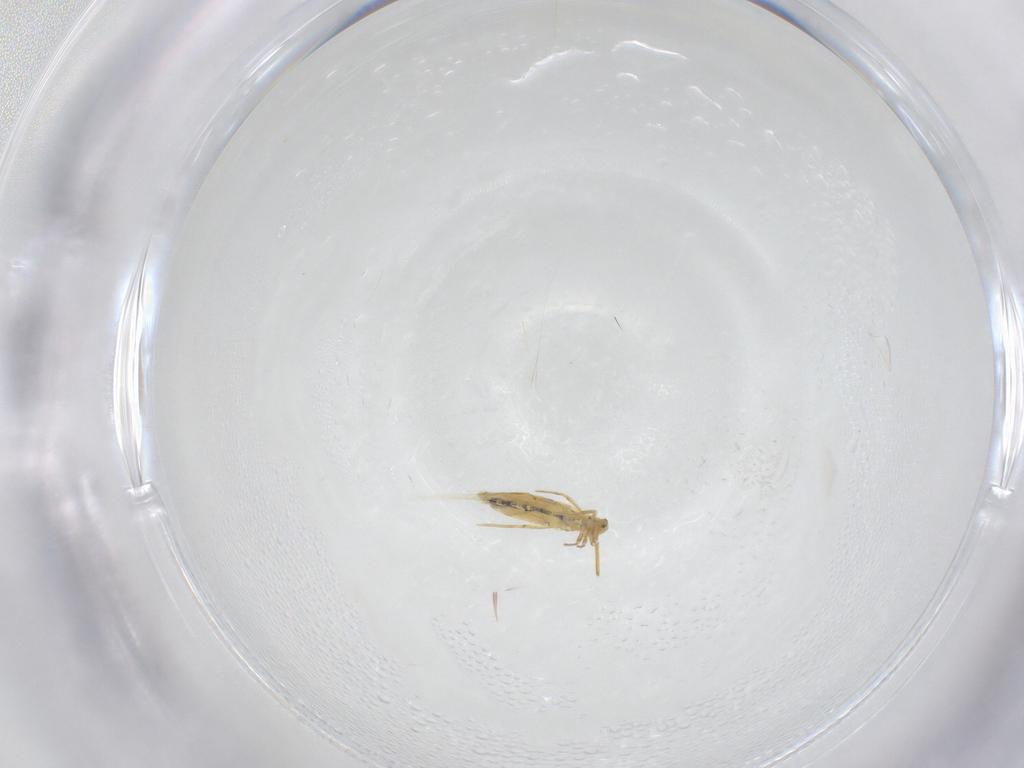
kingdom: Animalia
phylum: Arthropoda
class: Collembola
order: Entomobryomorpha
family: Entomobryidae
